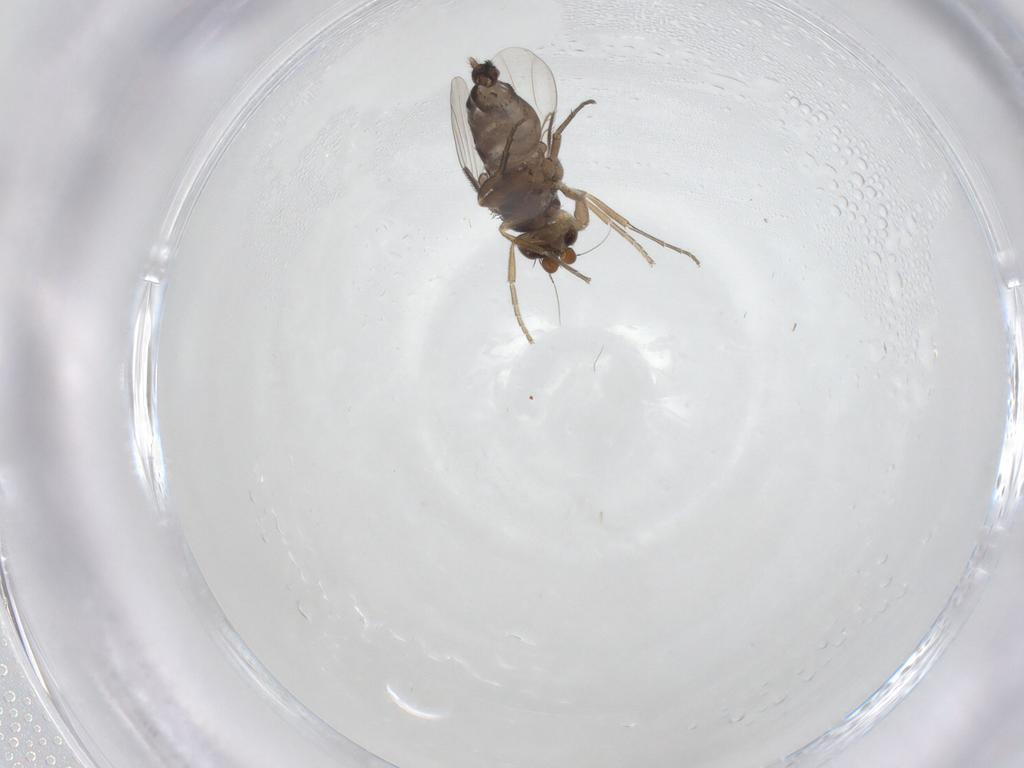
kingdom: Animalia
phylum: Arthropoda
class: Insecta
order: Diptera
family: Phoridae
